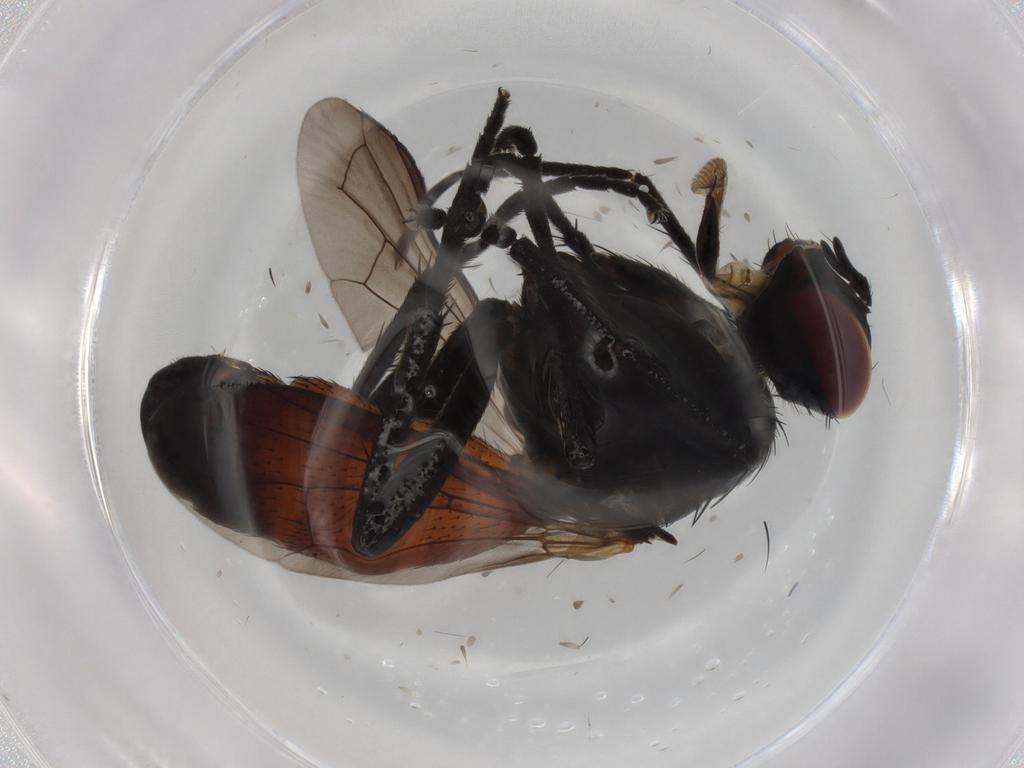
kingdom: Animalia
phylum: Arthropoda
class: Insecta
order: Diptera
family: Tachinidae
